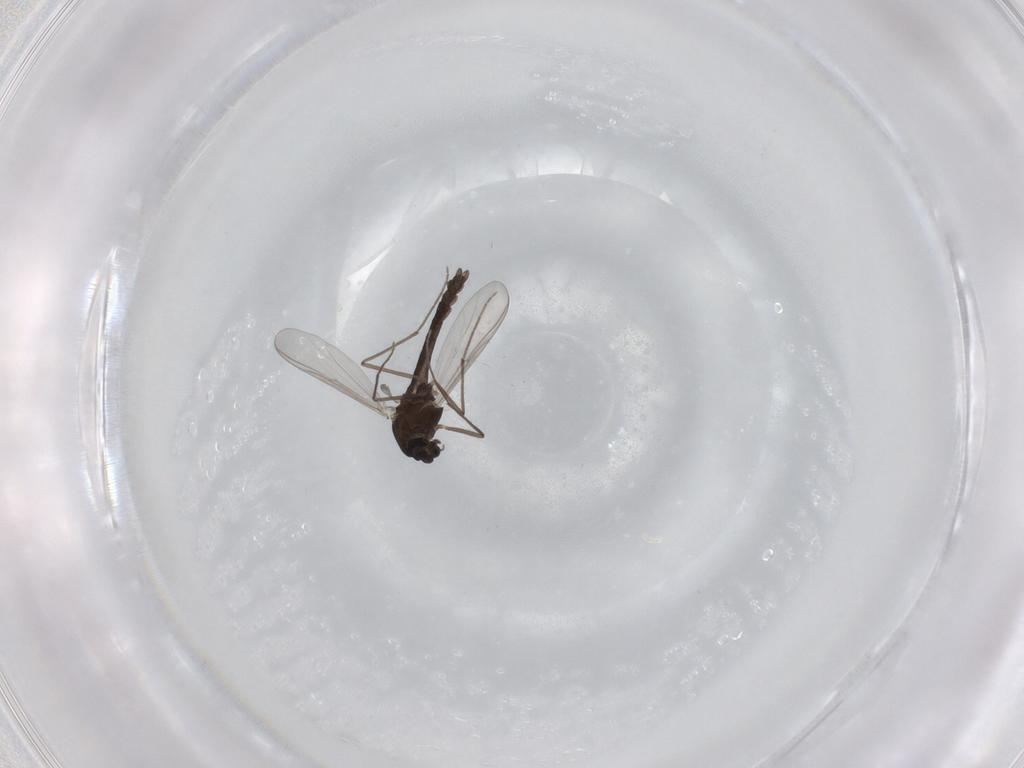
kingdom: Animalia
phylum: Arthropoda
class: Insecta
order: Diptera
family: Chironomidae
